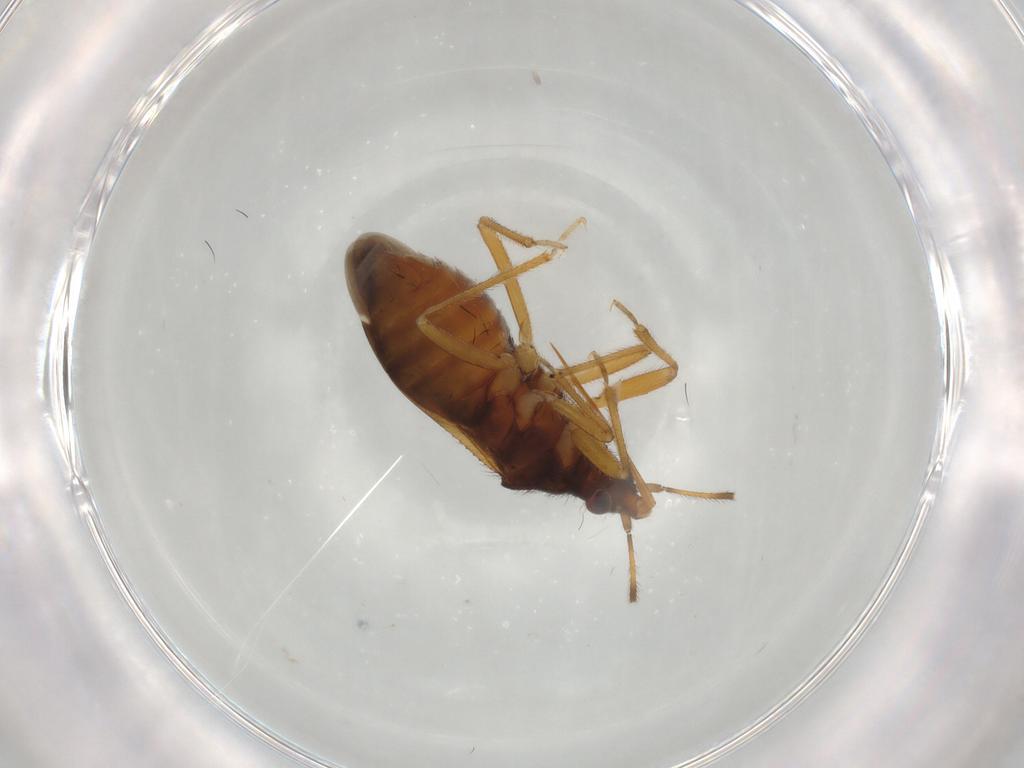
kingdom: Animalia
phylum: Arthropoda
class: Insecta
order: Hemiptera
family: Anthocoridae
